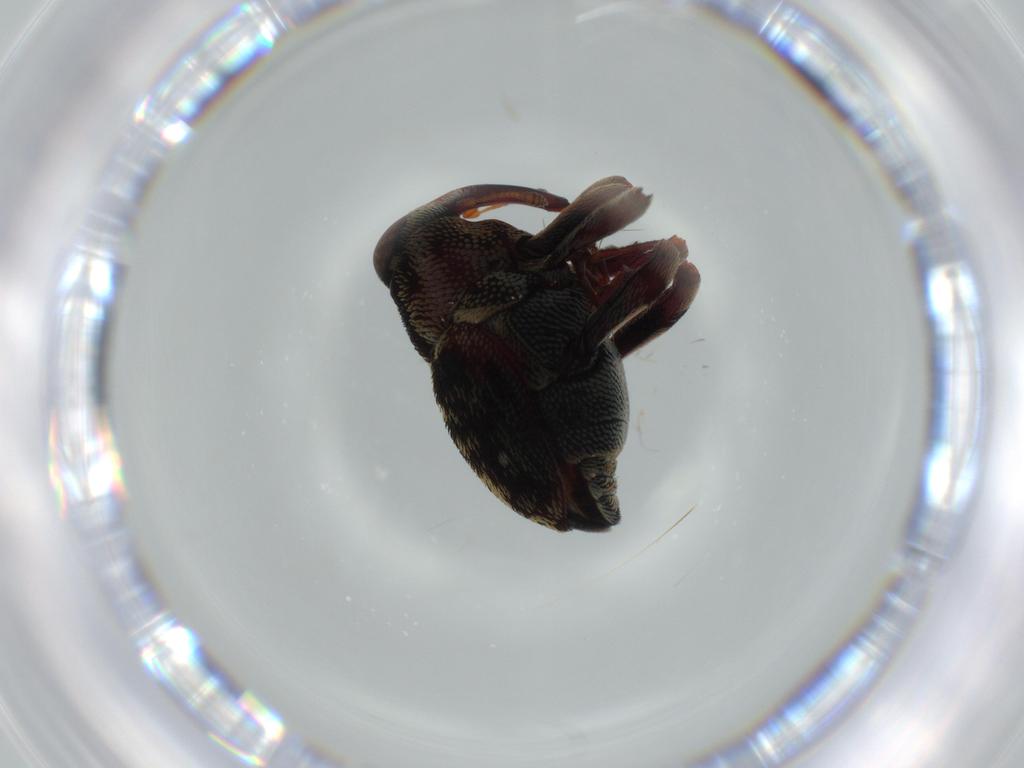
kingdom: Animalia
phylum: Arthropoda
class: Insecta
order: Coleoptera
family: Curculionidae
